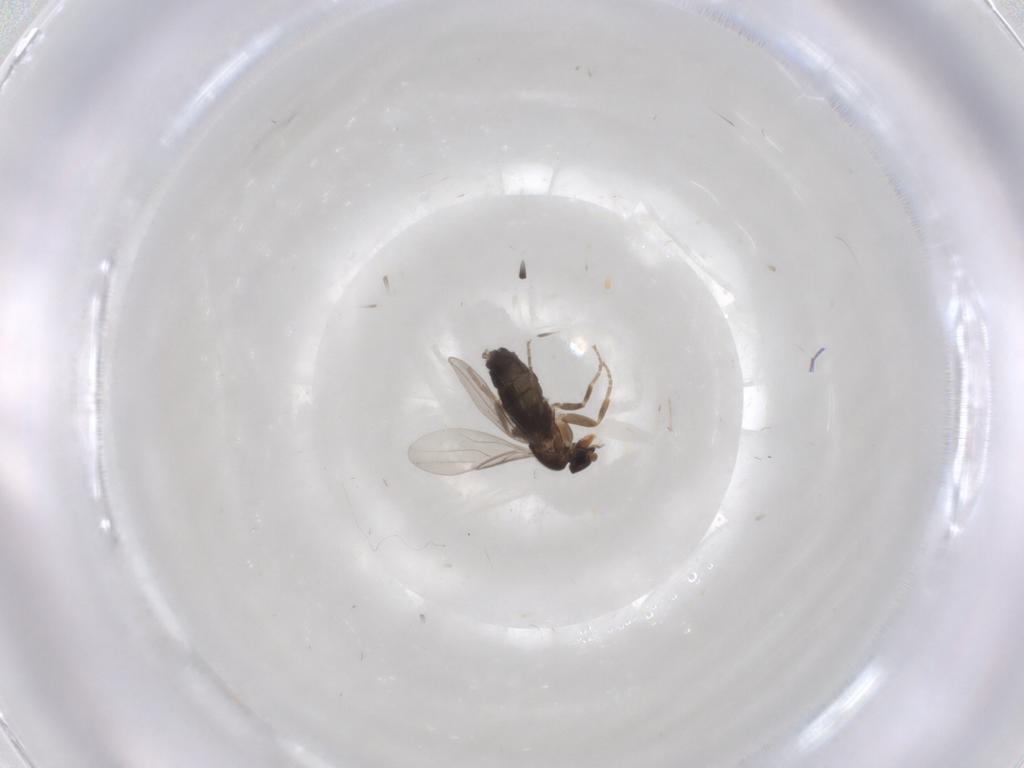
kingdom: Animalia
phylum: Arthropoda
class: Insecta
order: Diptera
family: Phoridae
